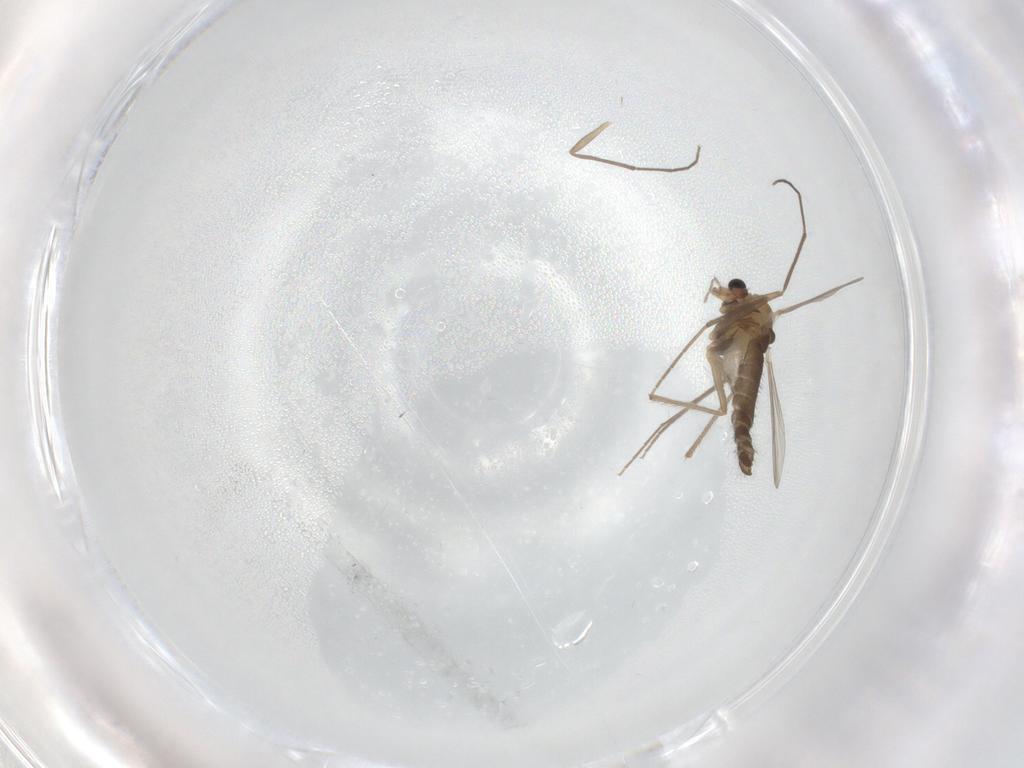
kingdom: Animalia
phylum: Arthropoda
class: Insecta
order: Diptera
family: Chironomidae
